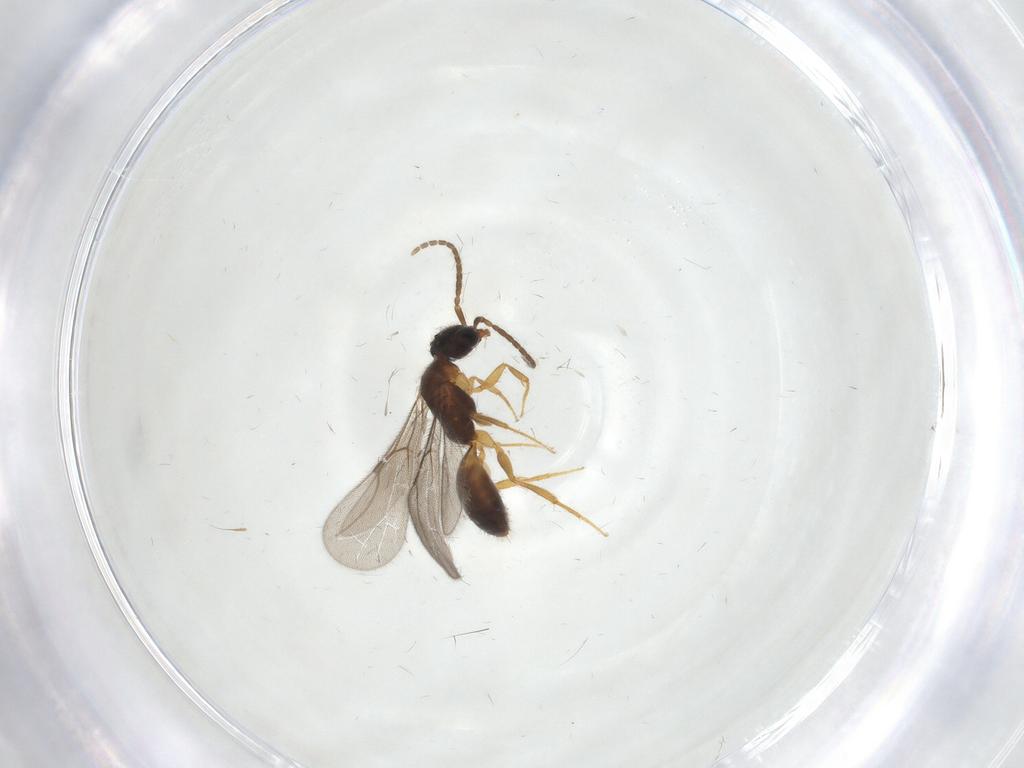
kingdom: Animalia
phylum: Arthropoda
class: Insecta
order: Hymenoptera
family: Bethylidae
